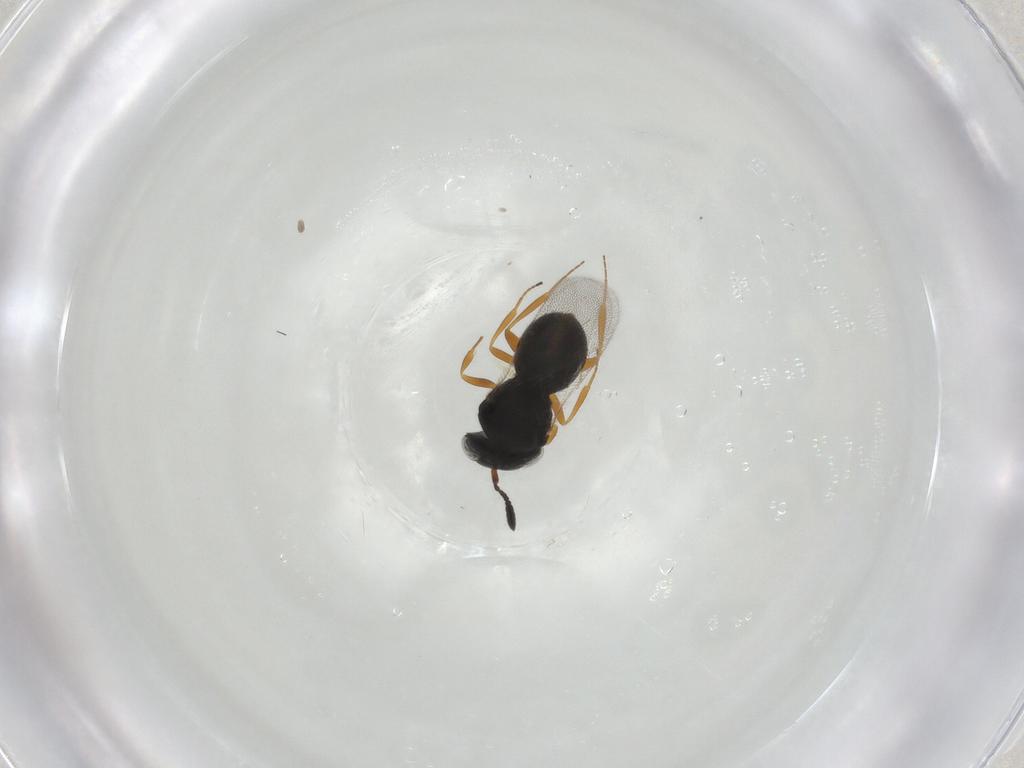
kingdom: Animalia
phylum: Arthropoda
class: Insecta
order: Hymenoptera
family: Scelionidae
